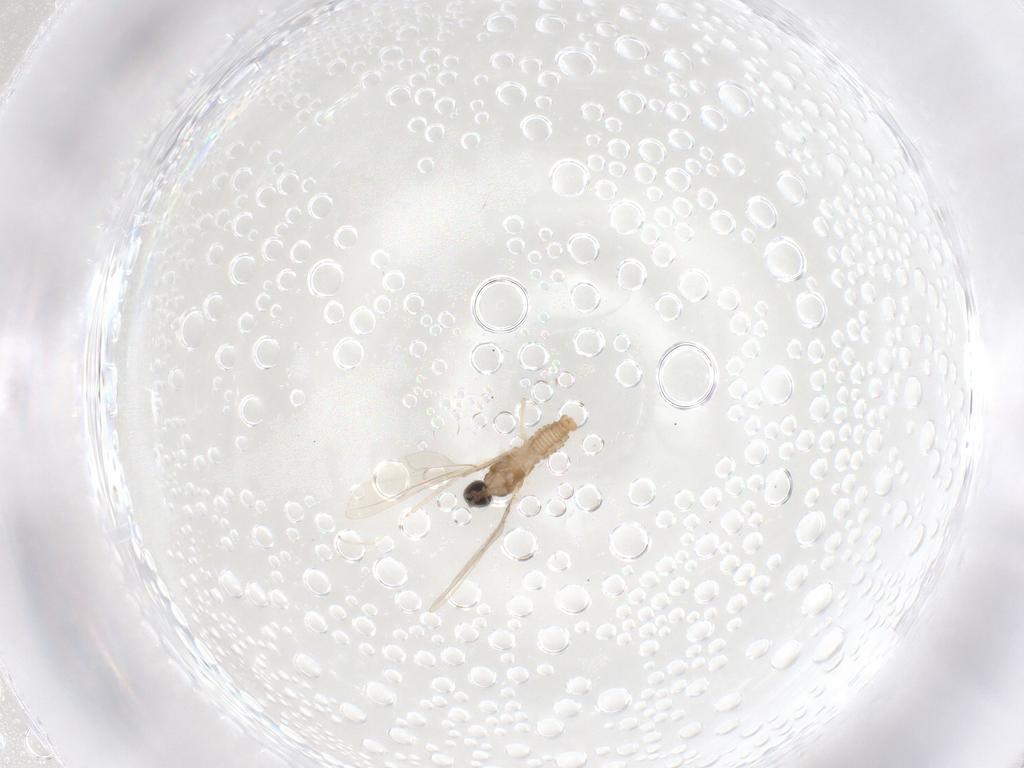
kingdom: Animalia
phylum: Arthropoda
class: Insecta
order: Diptera
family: Cecidomyiidae
